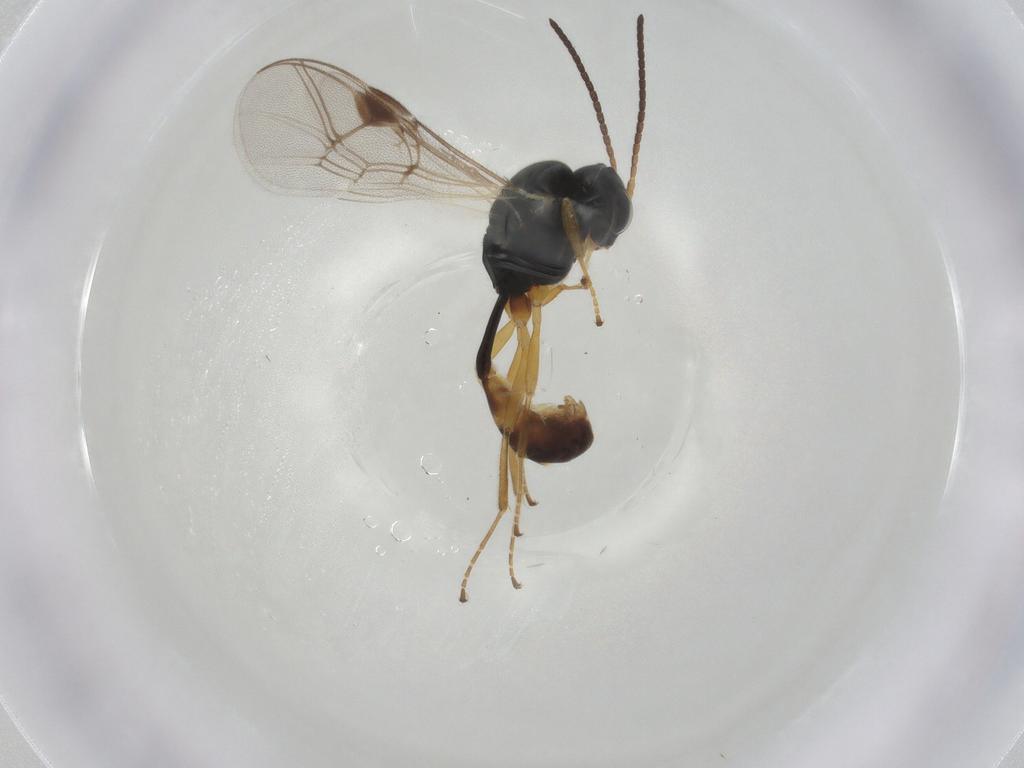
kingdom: Animalia
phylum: Arthropoda
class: Insecta
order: Hymenoptera
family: Ichneumonidae
